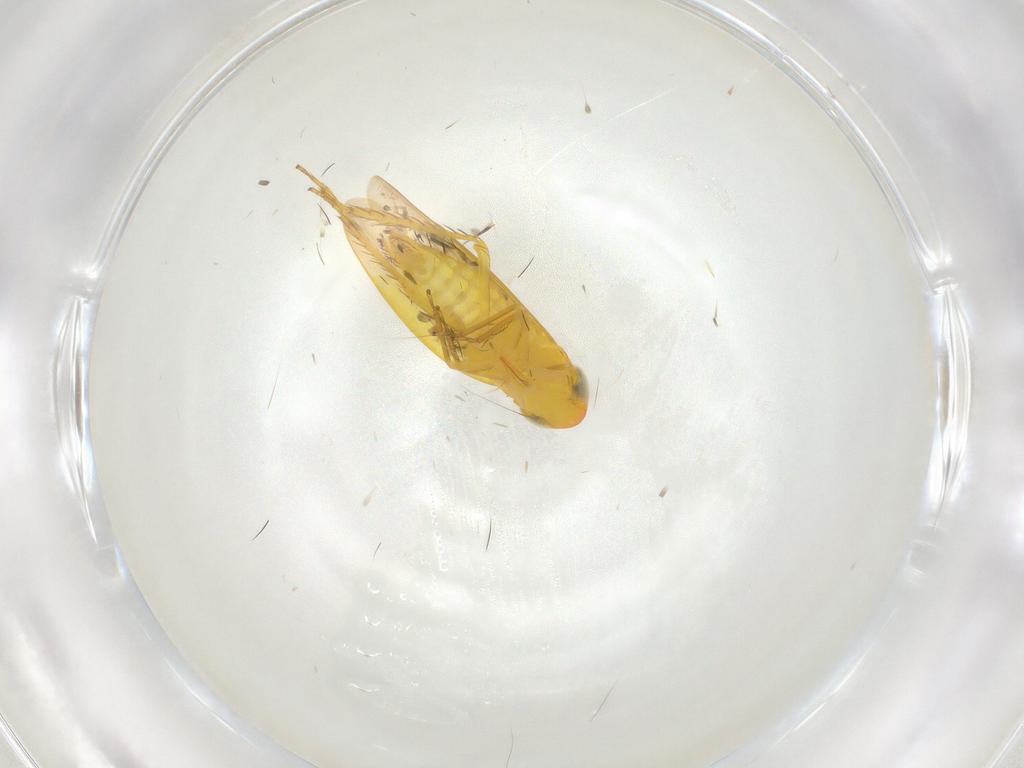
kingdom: Animalia
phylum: Arthropoda
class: Insecta
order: Hemiptera
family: Cicadellidae
